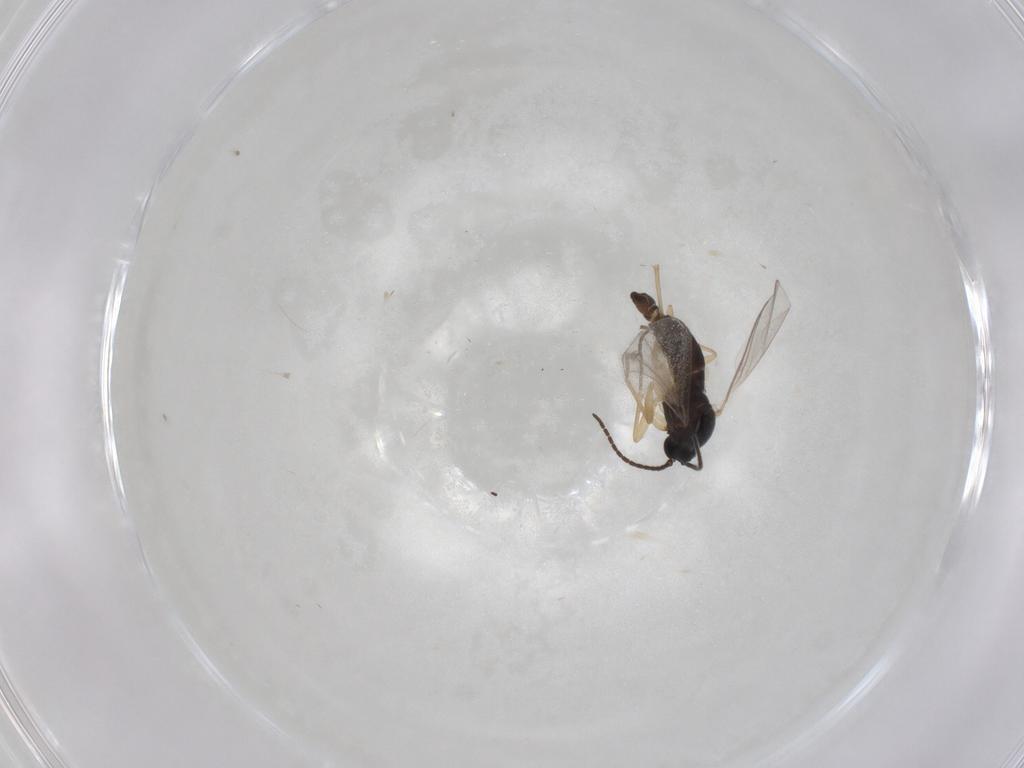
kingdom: Animalia
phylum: Arthropoda
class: Insecta
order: Diptera
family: Sciaridae
